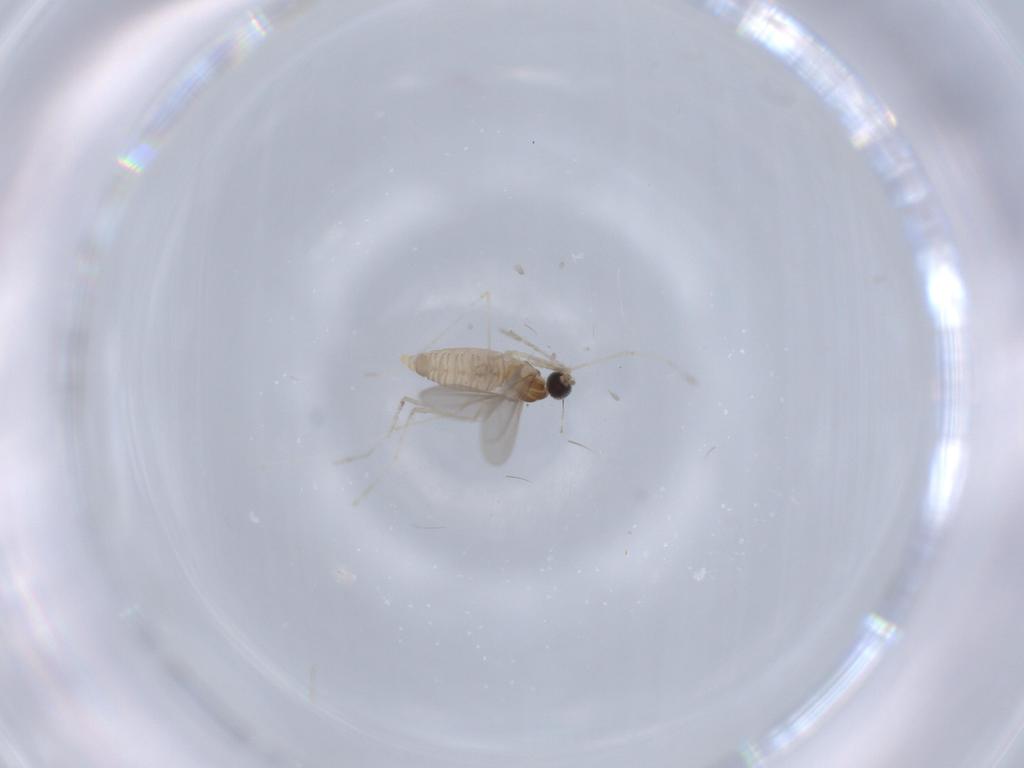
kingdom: Animalia
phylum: Arthropoda
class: Insecta
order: Diptera
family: Cecidomyiidae
